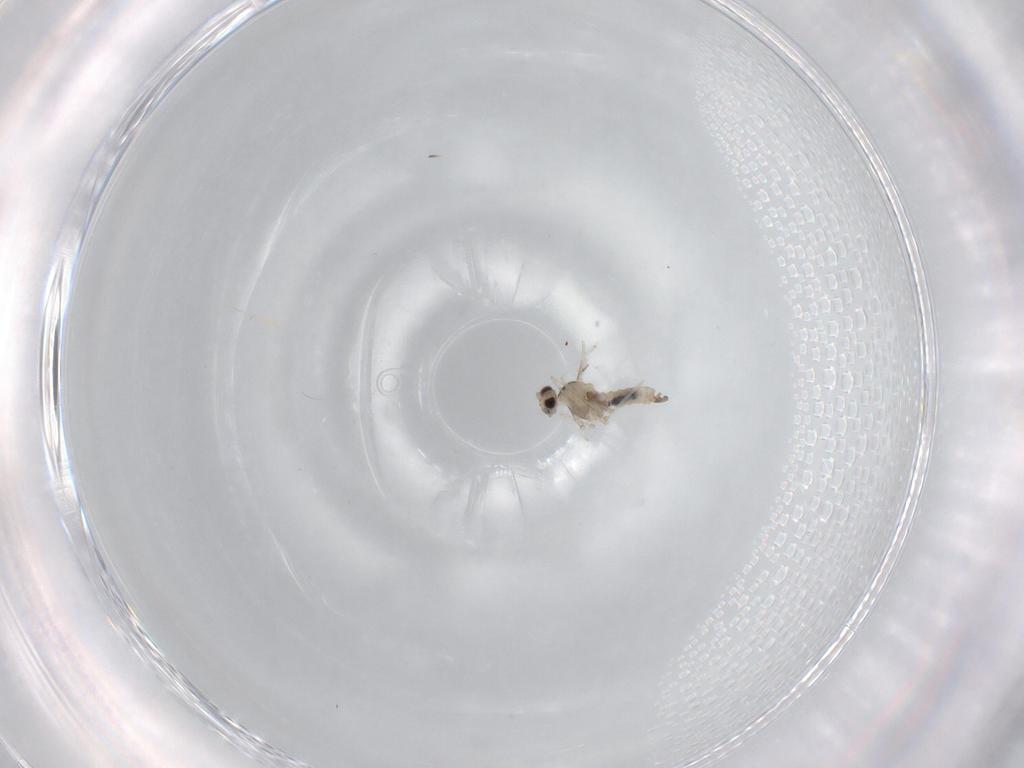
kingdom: Animalia
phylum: Arthropoda
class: Insecta
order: Diptera
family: Cecidomyiidae
